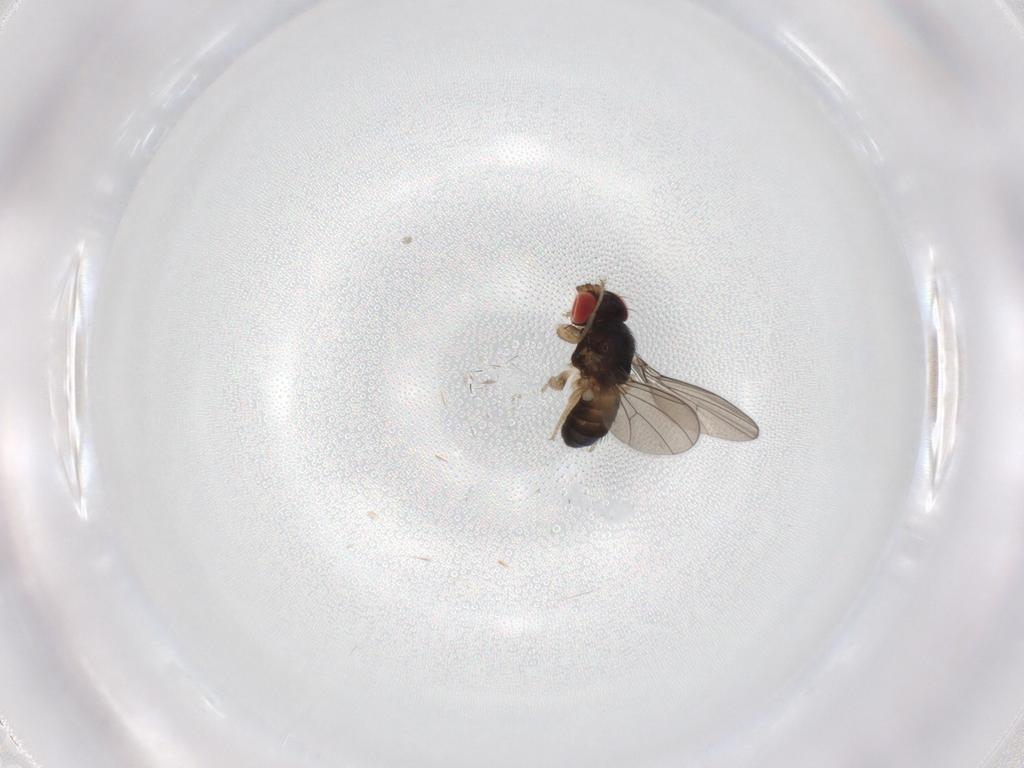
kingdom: Animalia
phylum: Arthropoda
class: Insecta
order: Diptera
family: Drosophilidae
